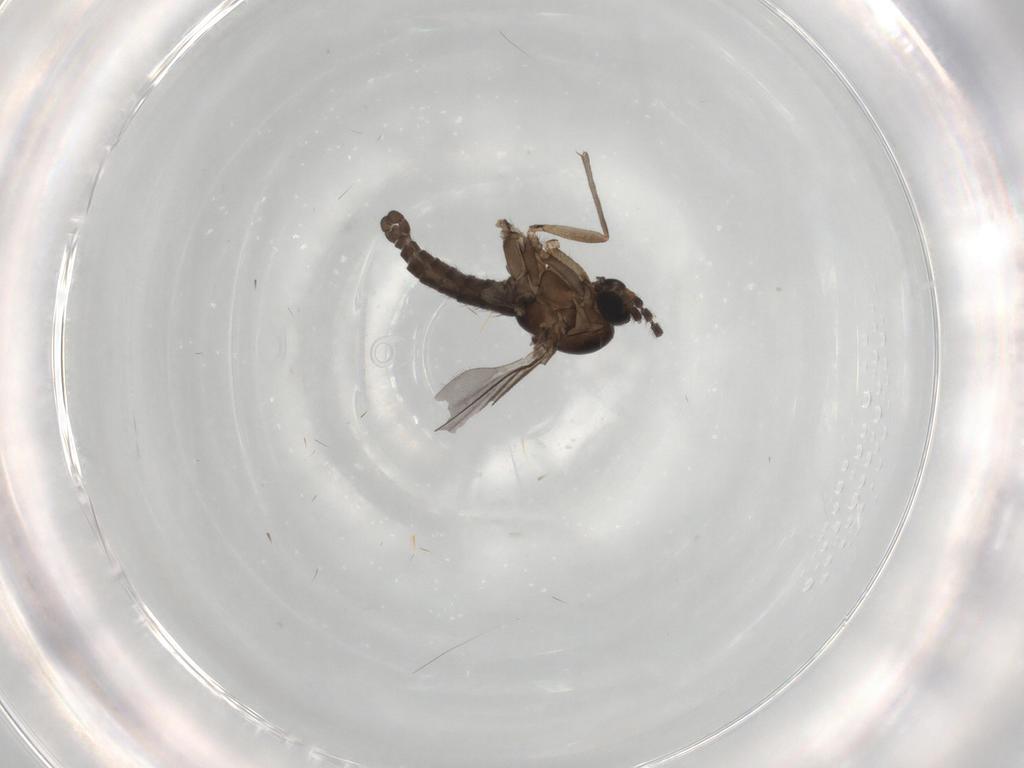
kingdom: Animalia
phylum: Arthropoda
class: Insecta
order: Diptera
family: Sciaridae
